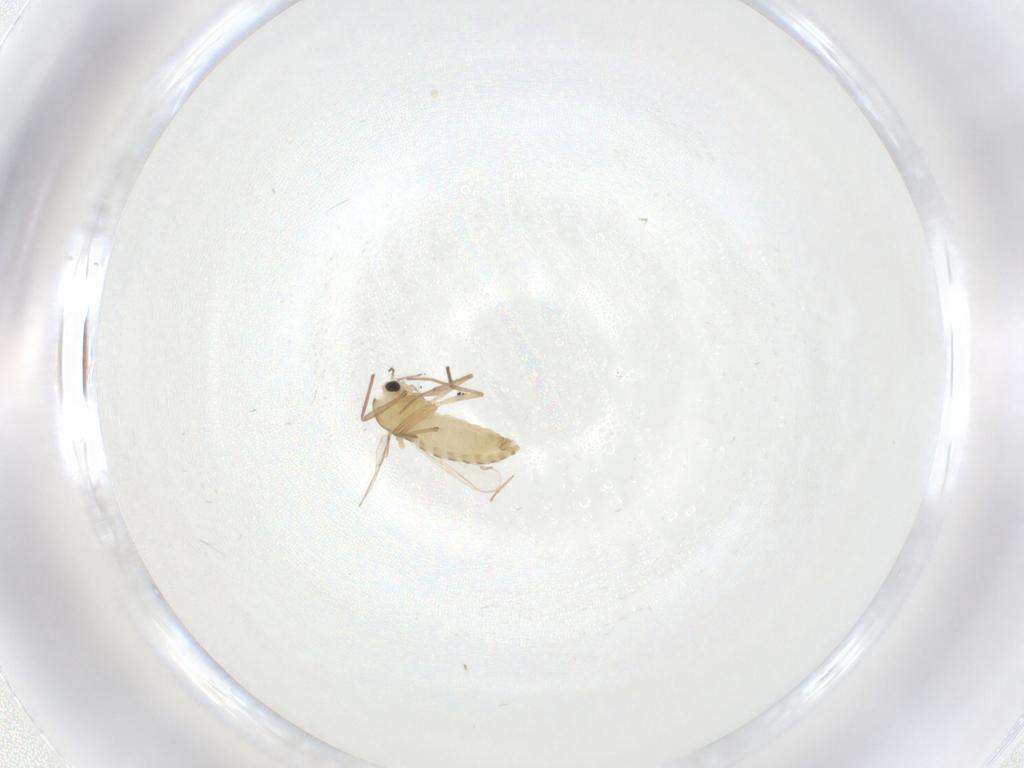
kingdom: Animalia
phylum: Arthropoda
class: Insecta
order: Diptera
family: Chironomidae
